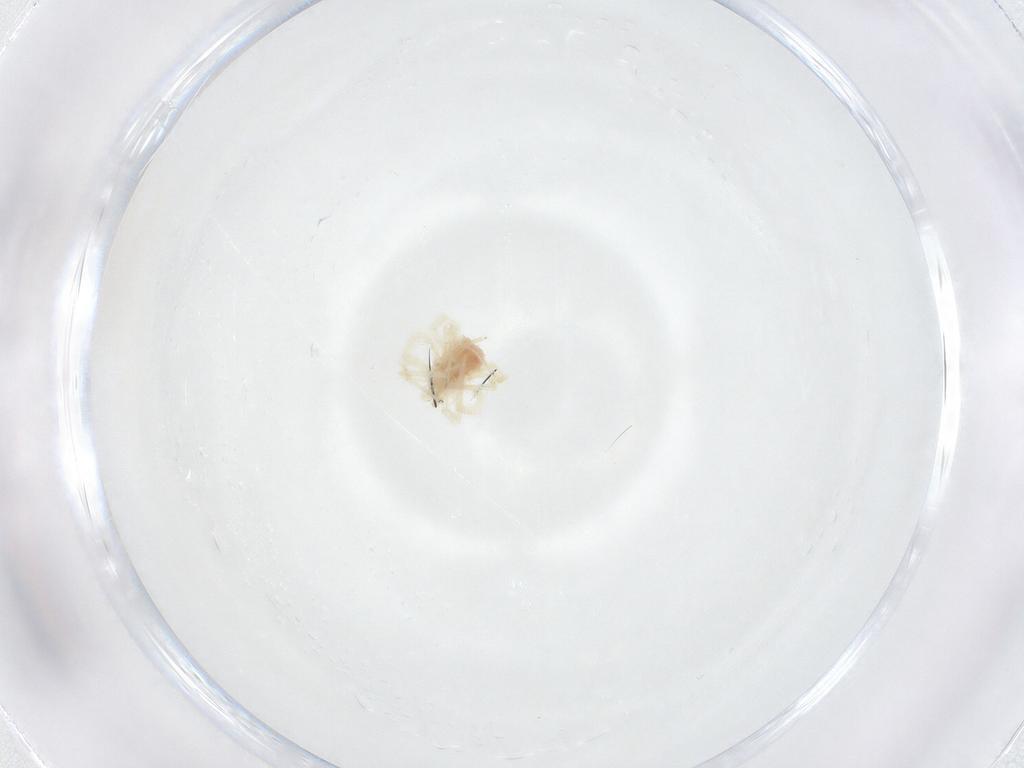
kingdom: Animalia
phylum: Arthropoda
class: Arachnida
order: Trombidiformes
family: Anystidae
